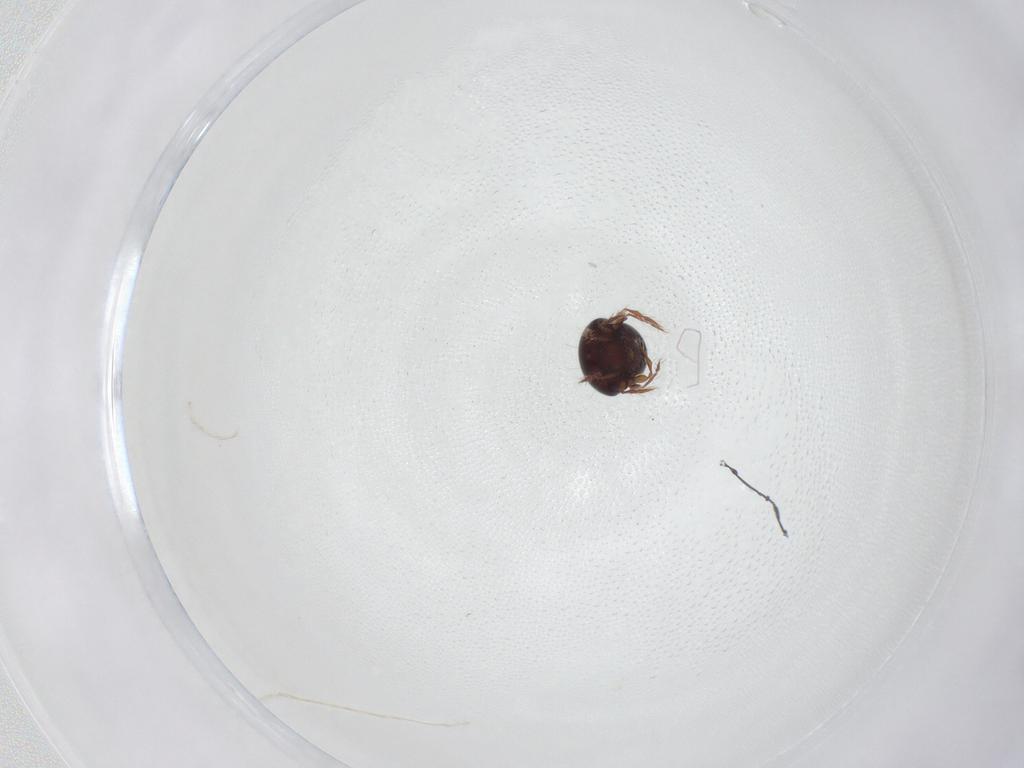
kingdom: Animalia
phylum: Arthropoda
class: Arachnida
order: Sarcoptiformes
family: Ceratoppiidae
